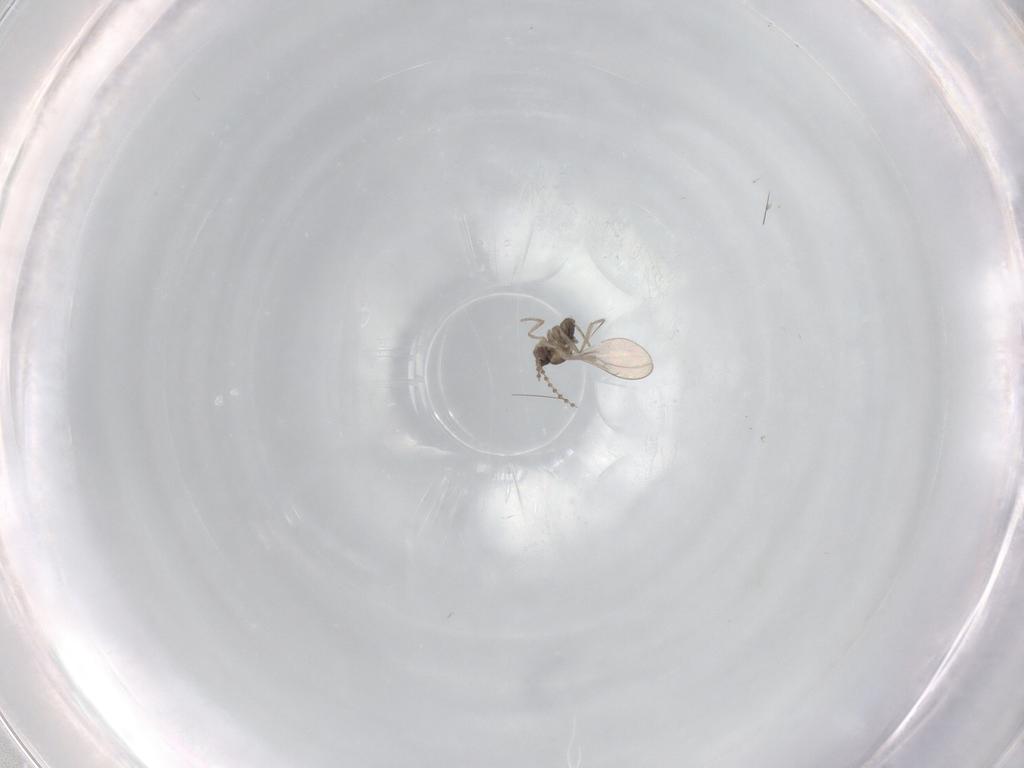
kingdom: Animalia
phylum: Arthropoda
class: Insecta
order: Diptera
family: Cecidomyiidae
